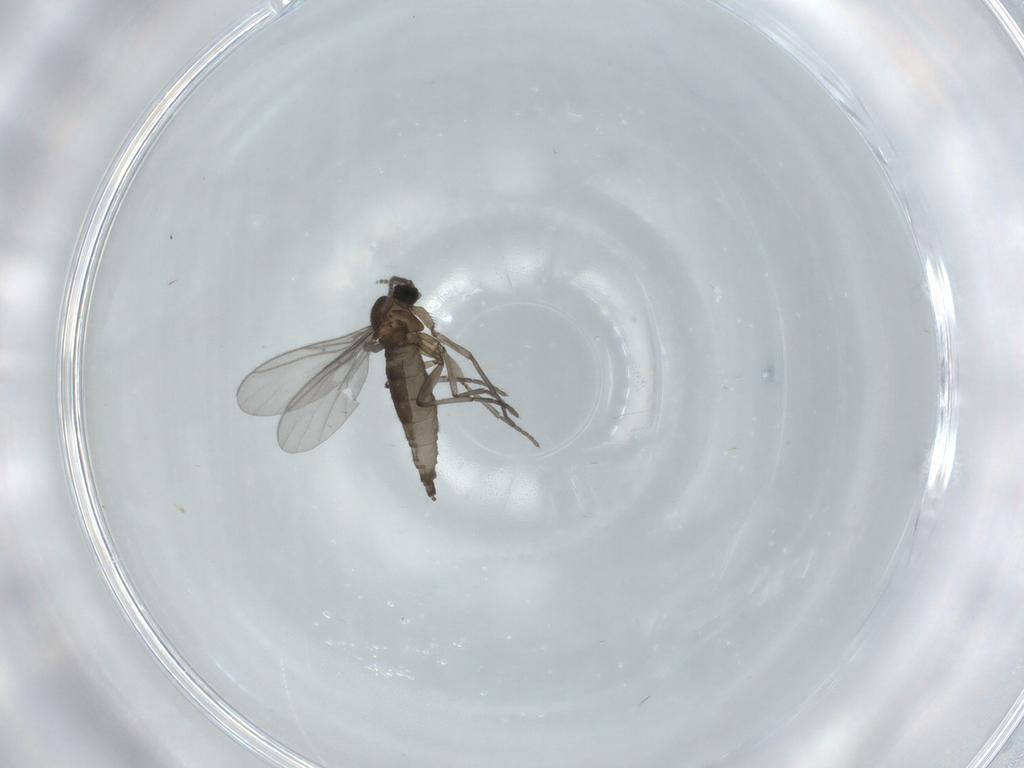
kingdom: Animalia
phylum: Arthropoda
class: Insecta
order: Diptera
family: Sciaridae
